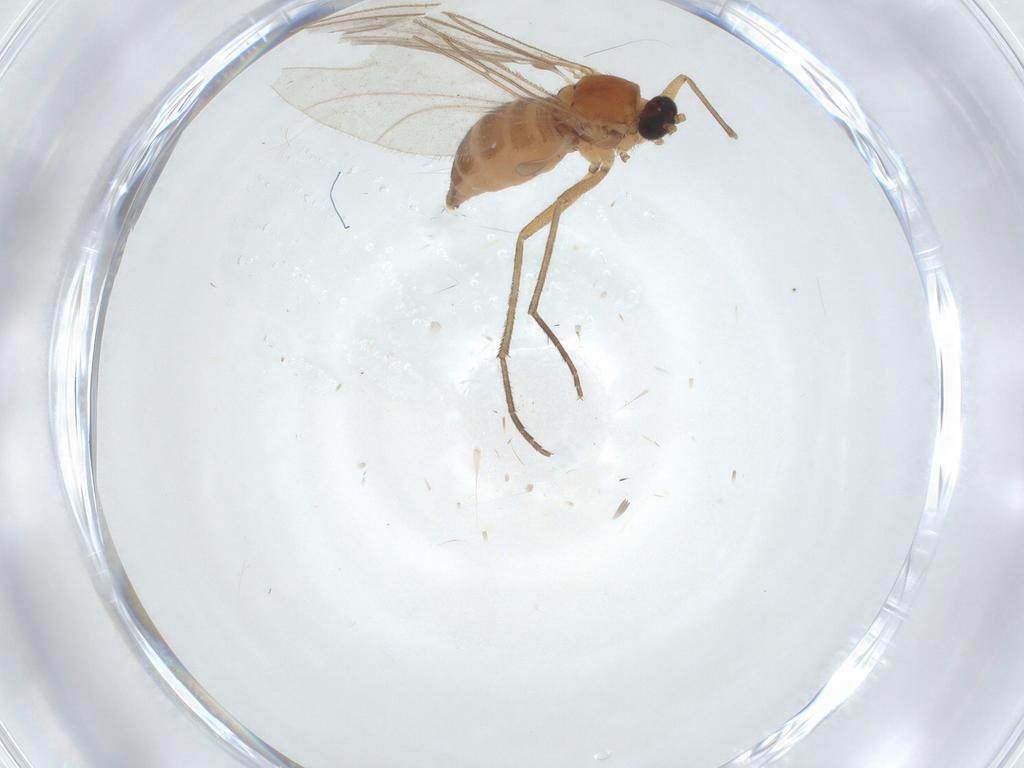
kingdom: Animalia
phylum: Arthropoda
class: Insecta
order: Diptera
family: Sciaridae
